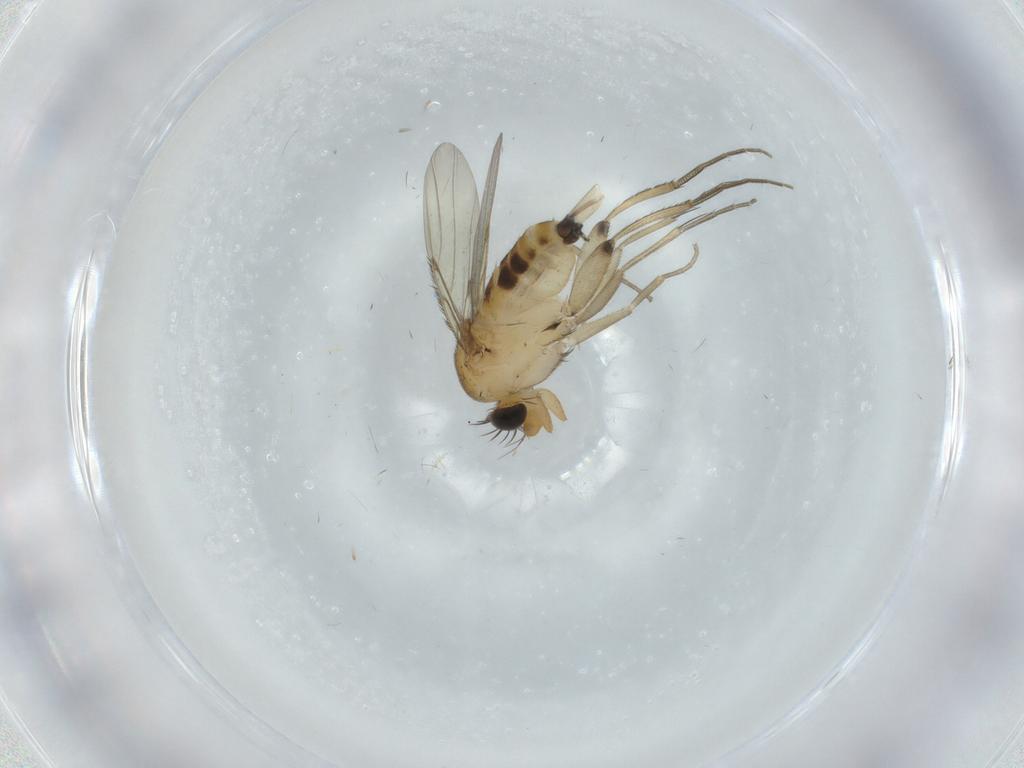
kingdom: Animalia
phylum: Arthropoda
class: Insecta
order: Diptera
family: Phoridae
